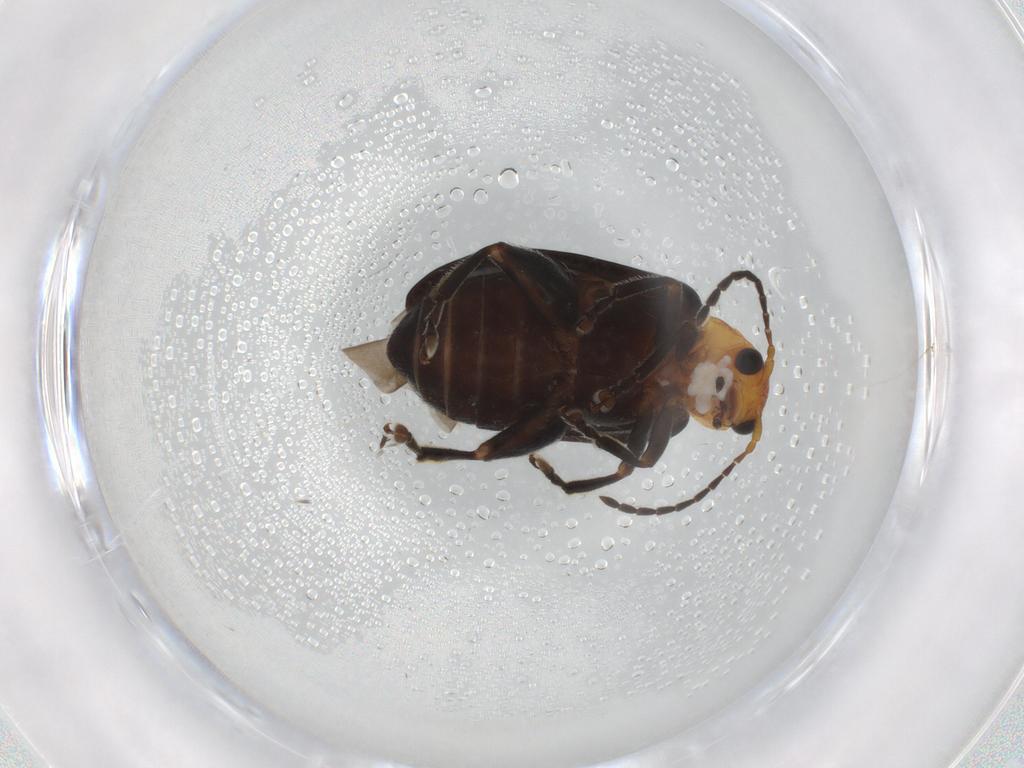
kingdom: Animalia
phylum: Arthropoda
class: Insecta
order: Coleoptera
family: Chrysomelidae
